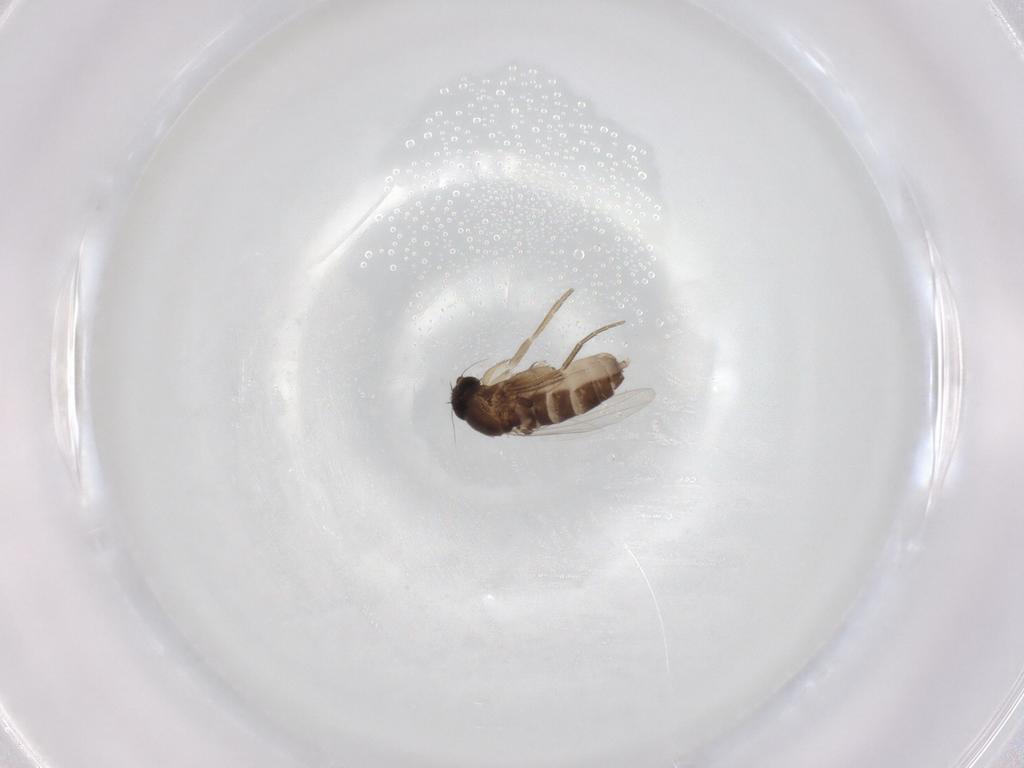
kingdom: Animalia
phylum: Arthropoda
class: Insecta
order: Diptera
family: Phoridae
